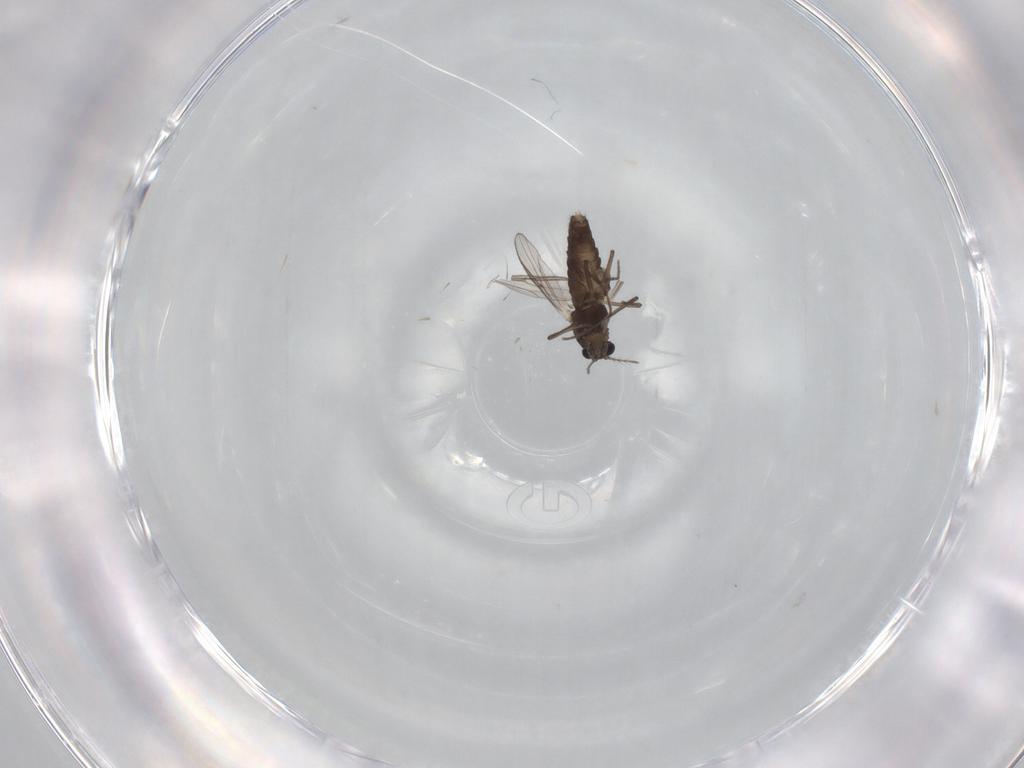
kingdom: Animalia
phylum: Arthropoda
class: Insecta
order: Diptera
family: Chironomidae
